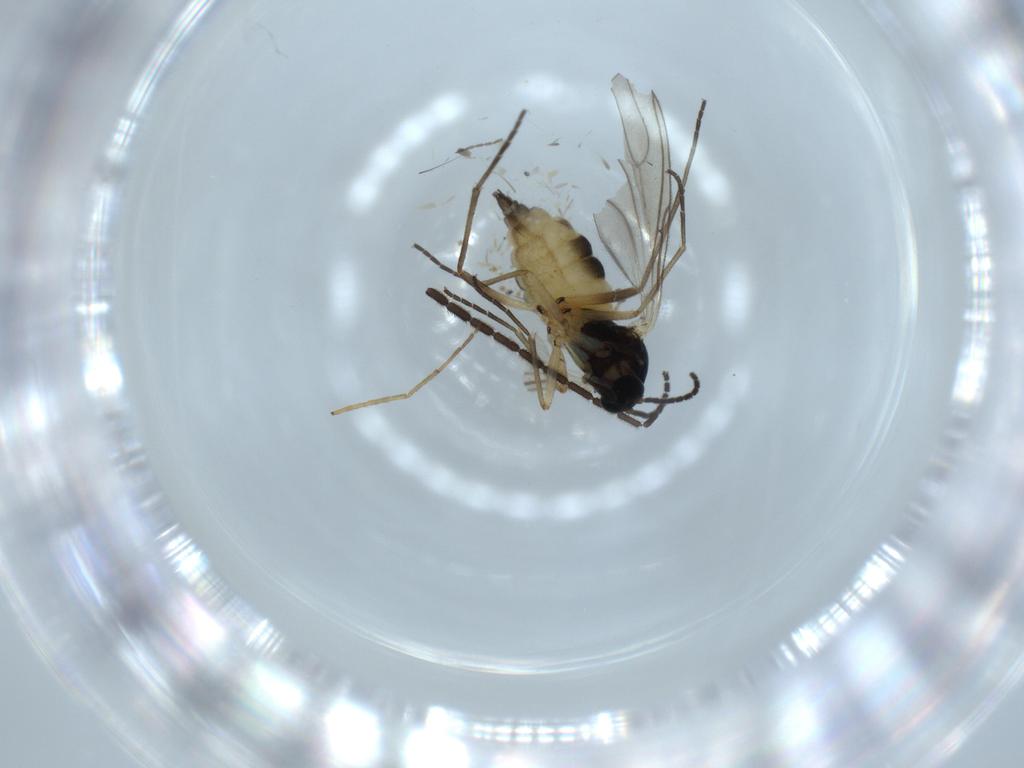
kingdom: Animalia
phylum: Arthropoda
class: Insecta
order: Diptera
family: Sciaridae
